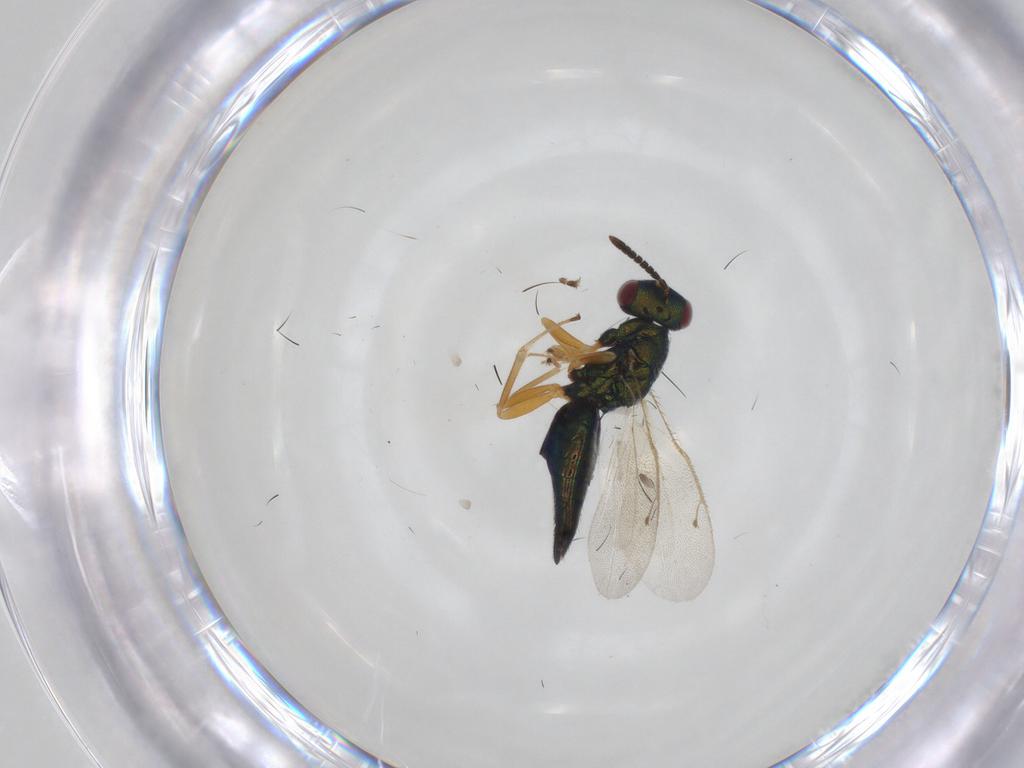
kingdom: Animalia
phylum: Arthropoda
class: Insecta
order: Hymenoptera
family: Pteromalidae
